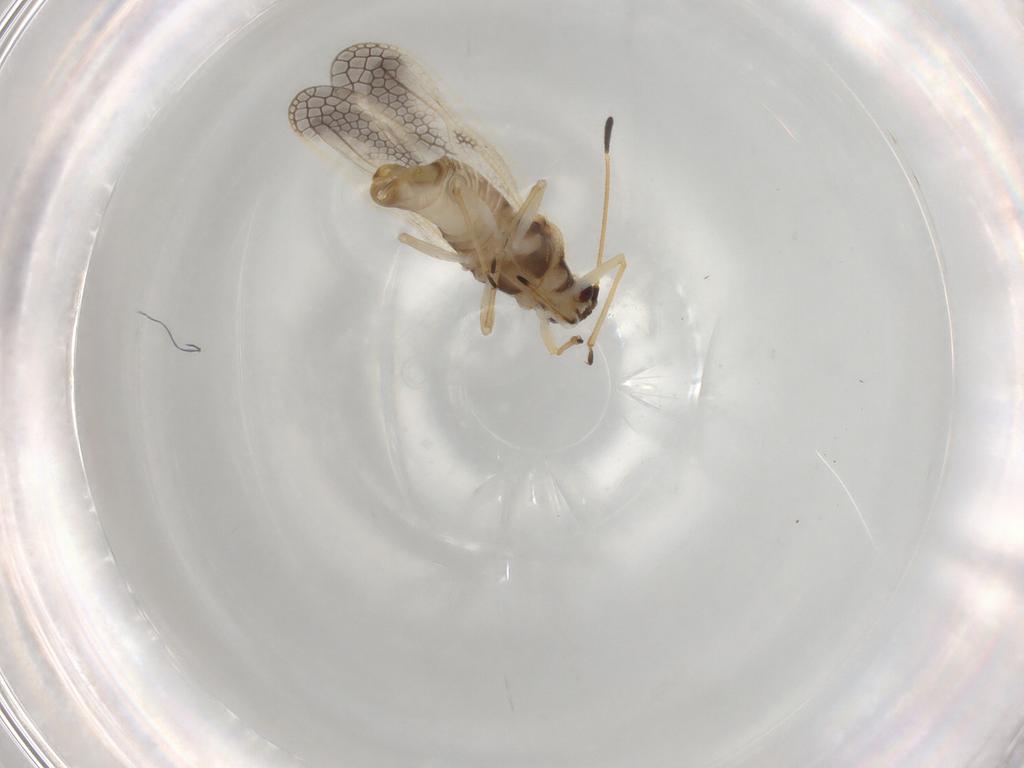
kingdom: Animalia
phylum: Arthropoda
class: Insecta
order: Hemiptera
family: Tingidae
